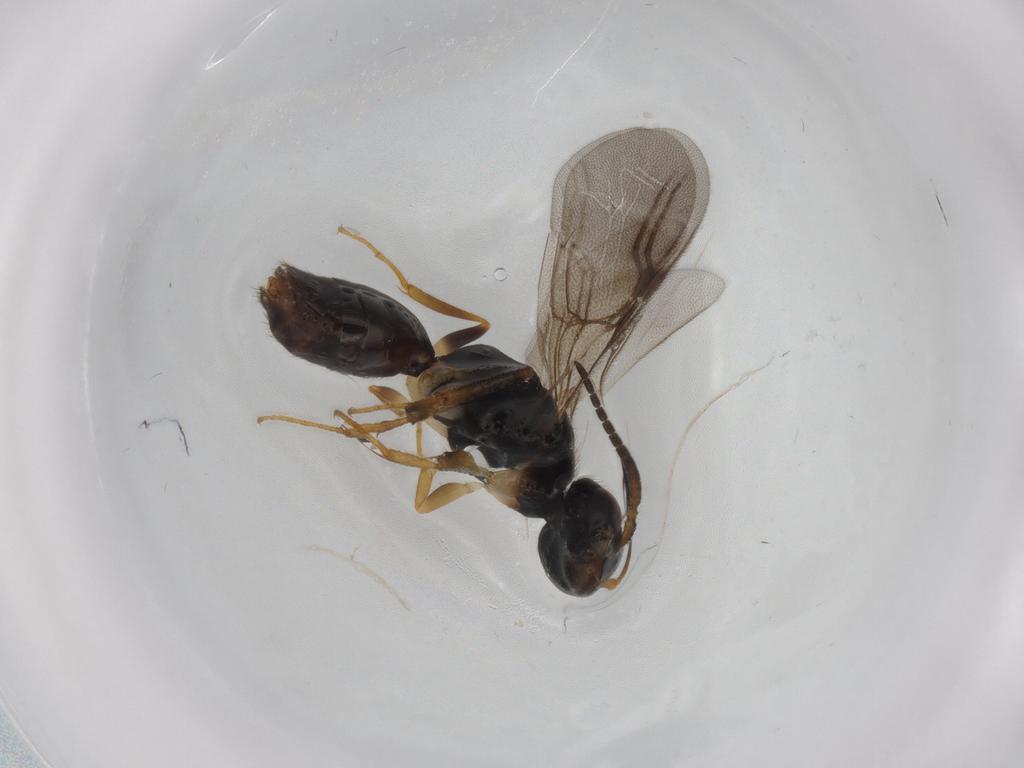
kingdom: Animalia
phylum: Arthropoda
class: Insecta
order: Hymenoptera
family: Bethylidae
